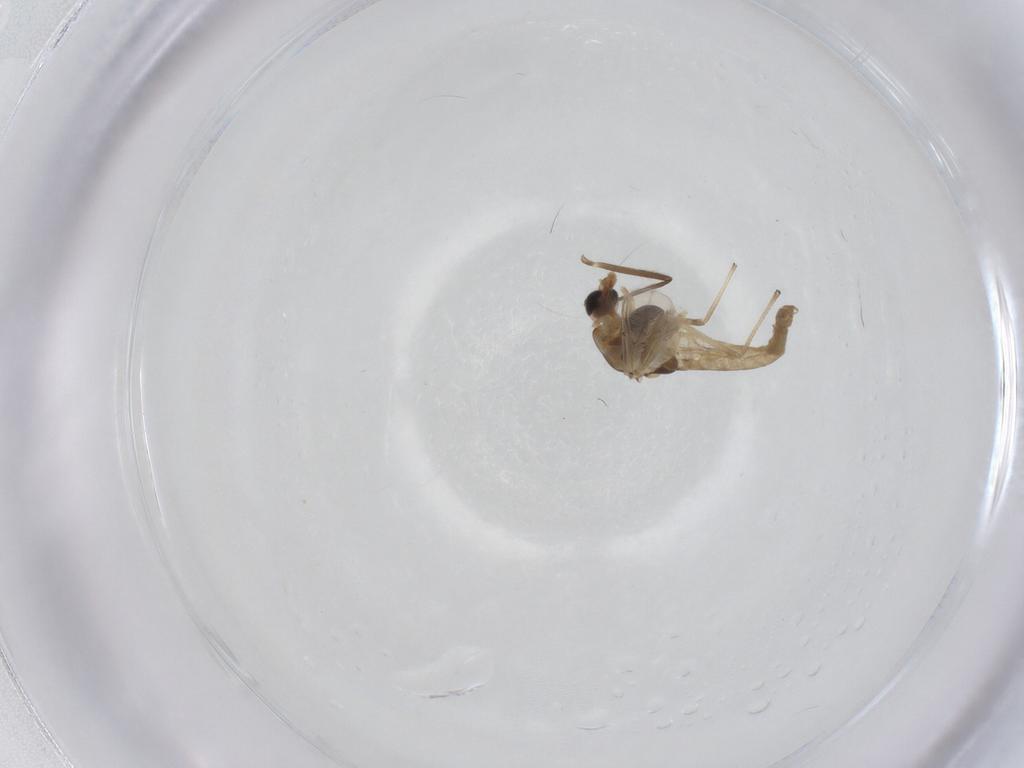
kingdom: Animalia
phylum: Arthropoda
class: Insecta
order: Diptera
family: Chironomidae
